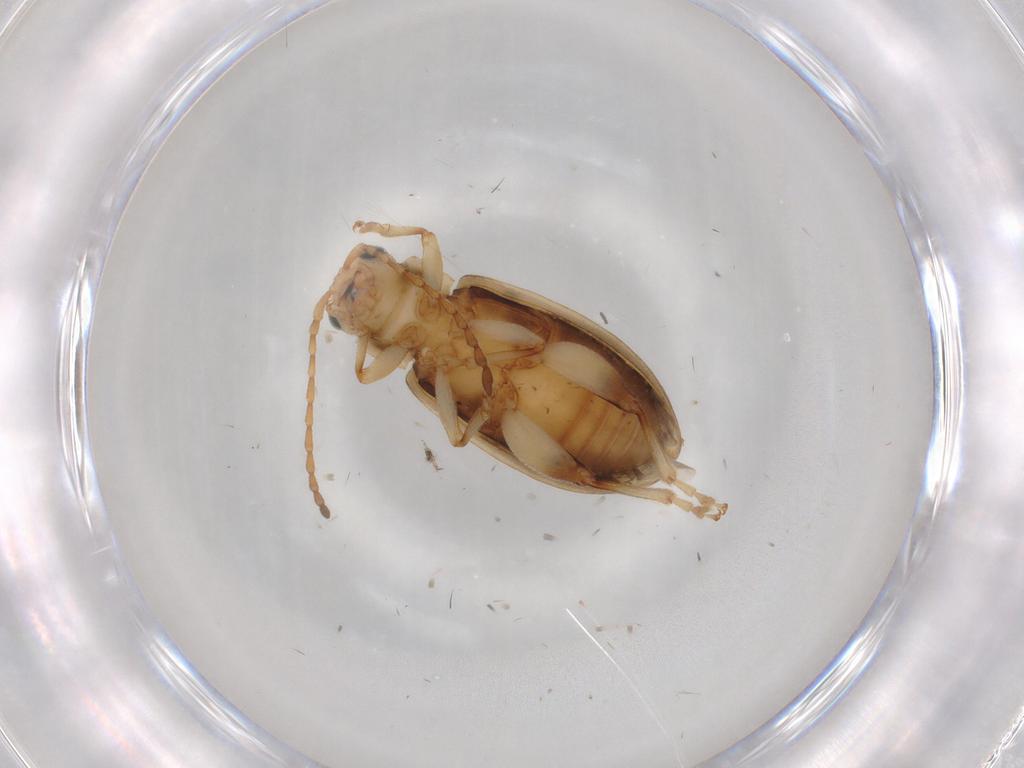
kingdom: Animalia
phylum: Arthropoda
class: Insecta
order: Coleoptera
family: Chrysomelidae
